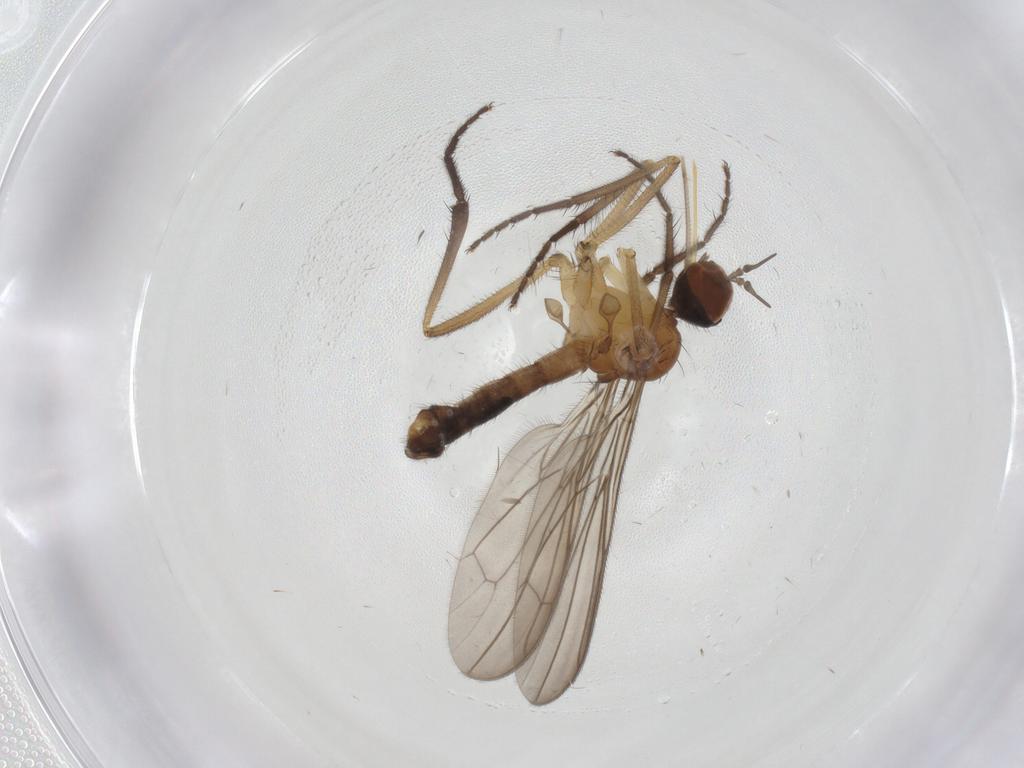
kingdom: Animalia
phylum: Arthropoda
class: Insecta
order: Diptera
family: Empididae
